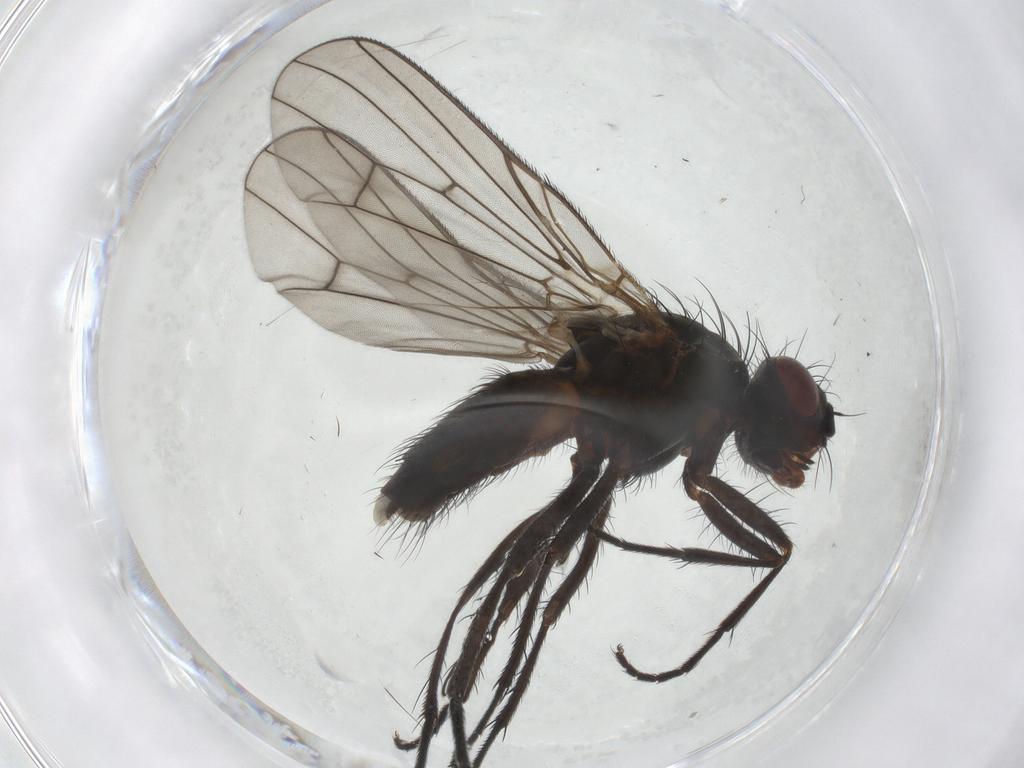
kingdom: Animalia
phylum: Arthropoda
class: Insecta
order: Diptera
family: Anthomyiidae
